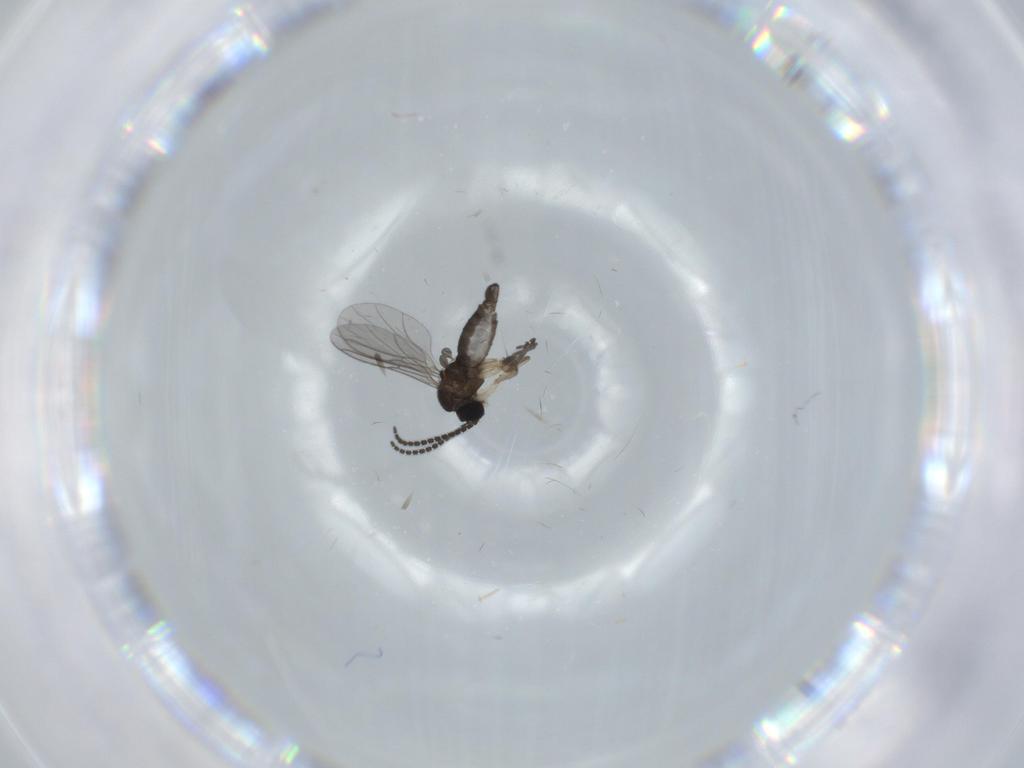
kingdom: Animalia
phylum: Arthropoda
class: Insecta
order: Diptera
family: Sciaridae
